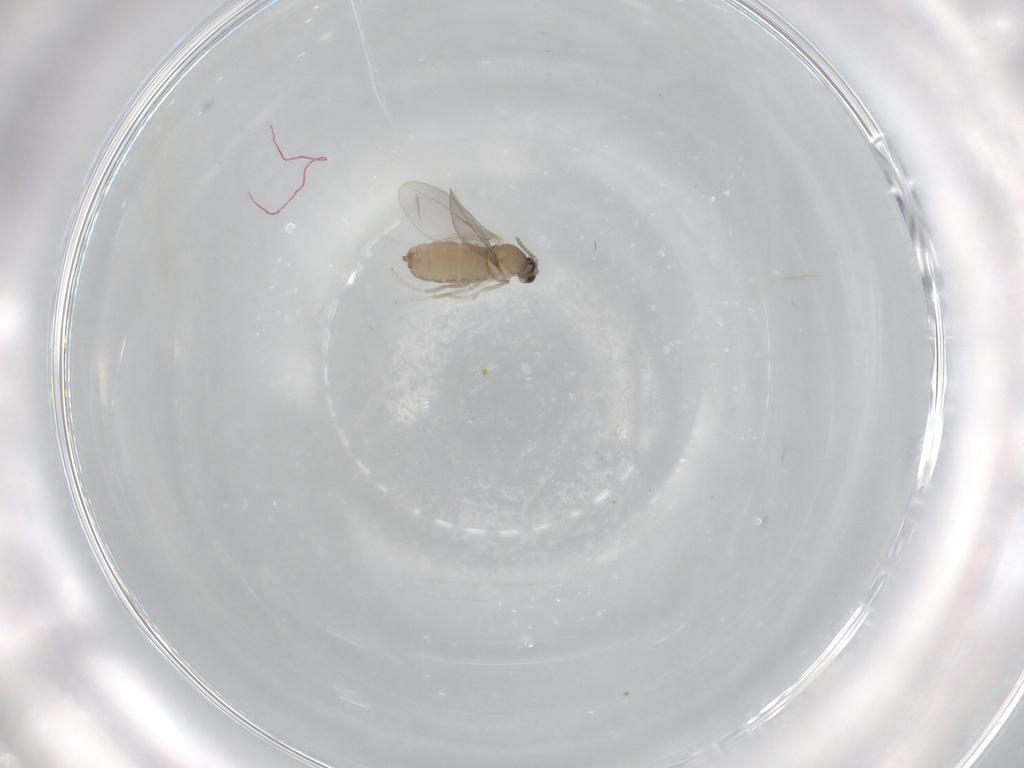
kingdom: Animalia
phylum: Arthropoda
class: Insecta
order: Diptera
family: Cecidomyiidae
